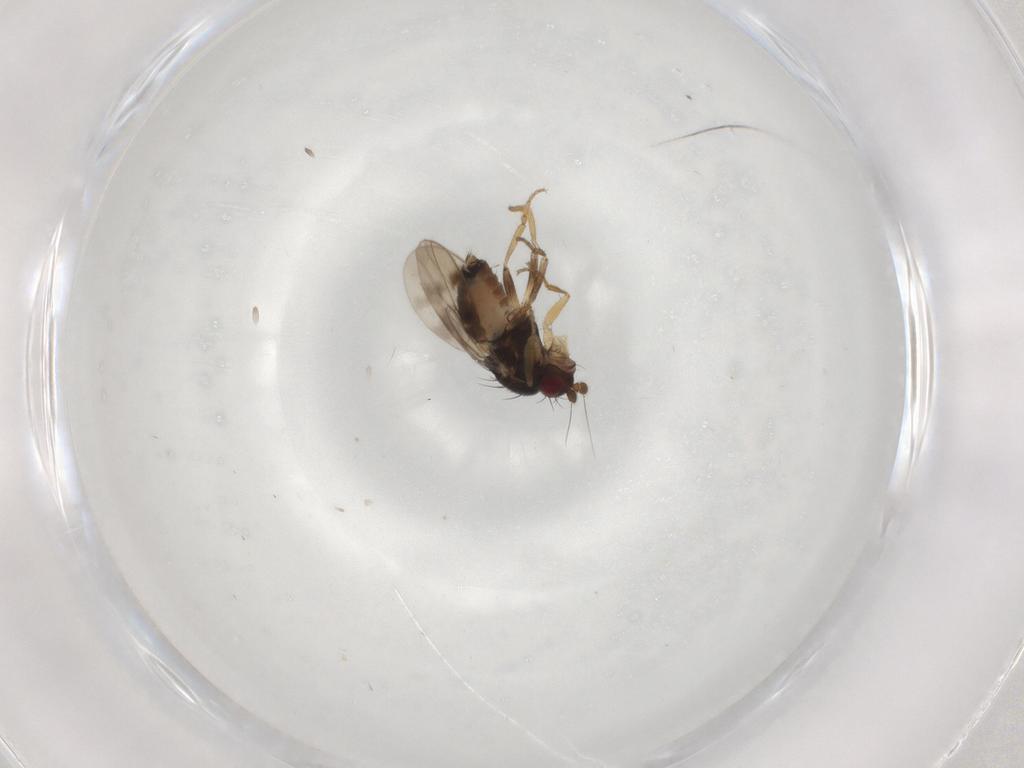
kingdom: Animalia
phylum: Arthropoda
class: Insecta
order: Diptera
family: Sphaeroceridae
